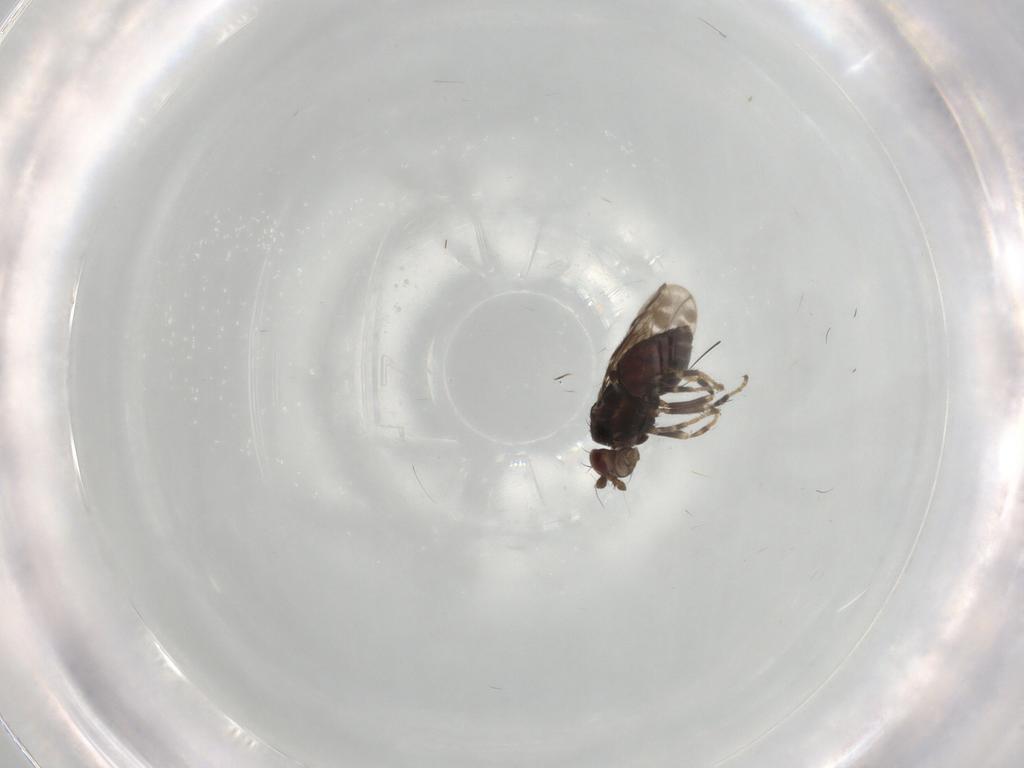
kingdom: Animalia
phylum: Arthropoda
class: Insecta
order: Diptera
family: Sphaeroceridae
